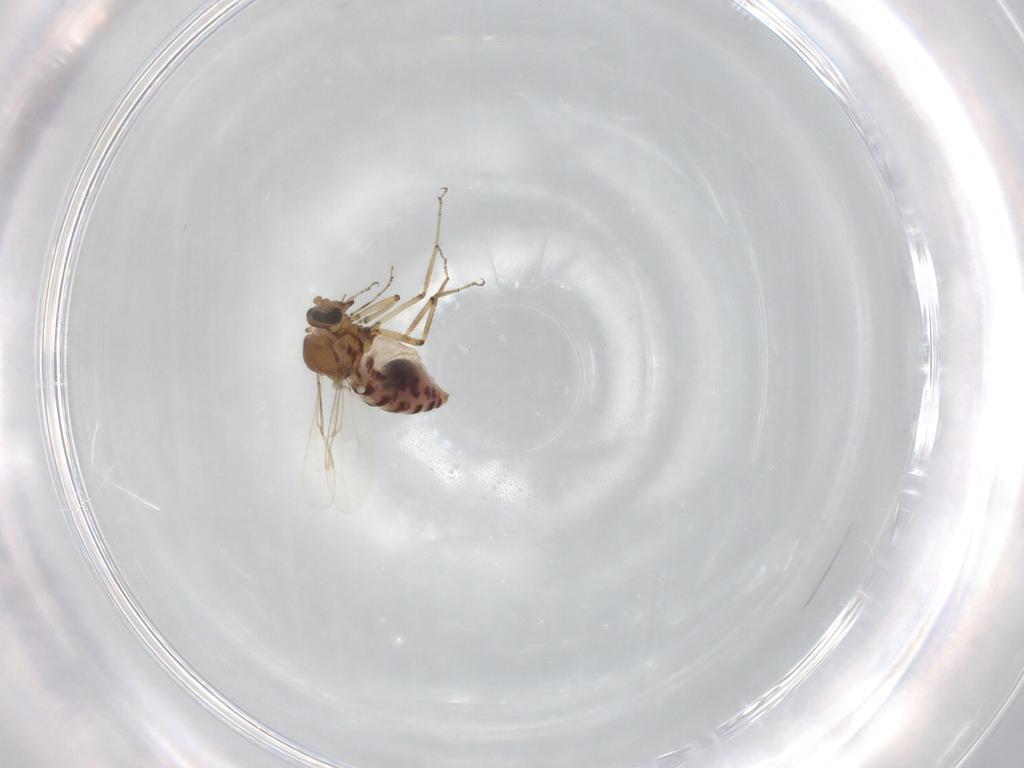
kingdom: Animalia
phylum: Arthropoda
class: Insecta
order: Diptera
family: Ceratopogonidae
